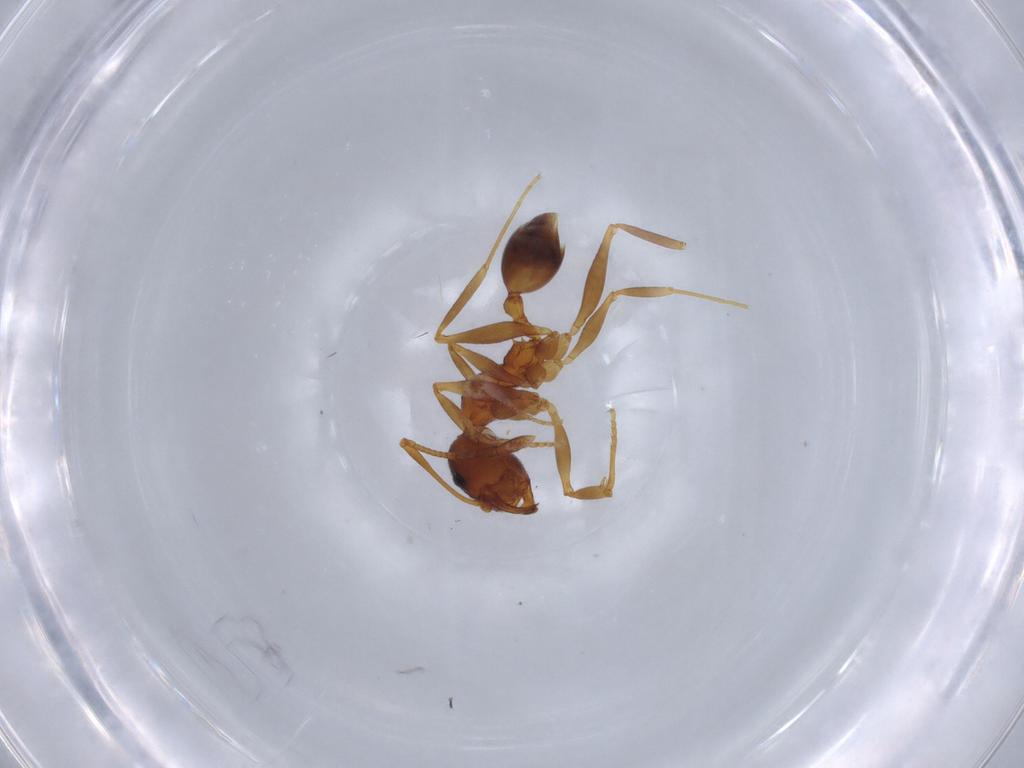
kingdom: Animalia
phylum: Arthropoda
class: Insecta
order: Hymenoptera
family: Formicidae
